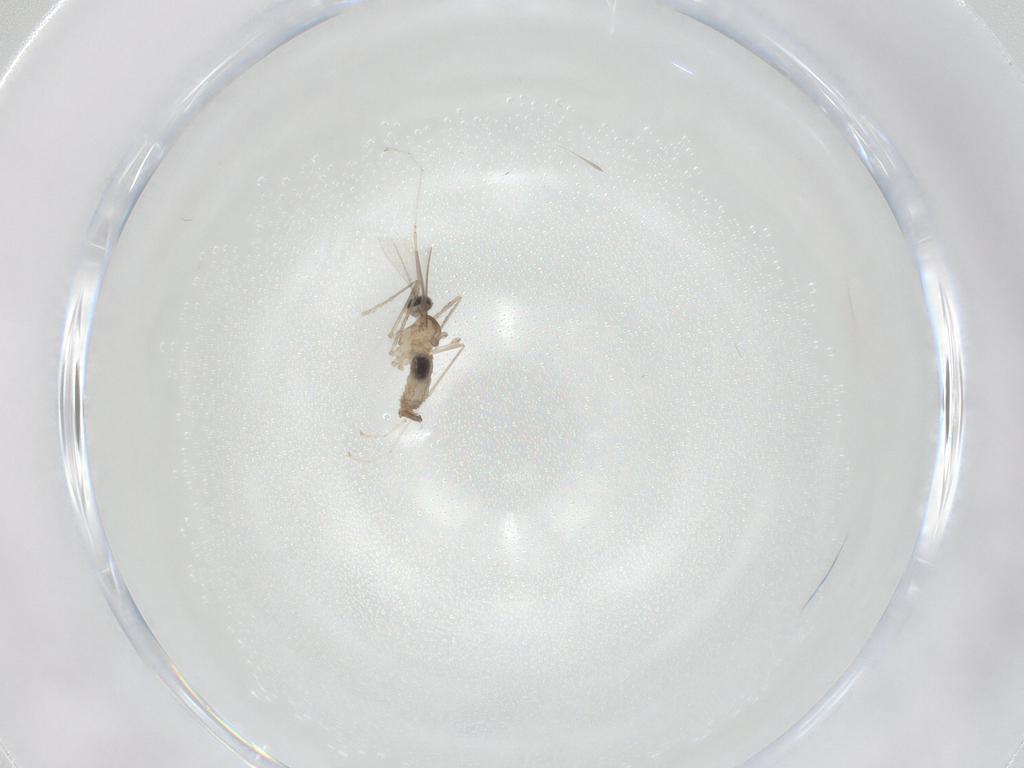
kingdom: Animalia
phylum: Arthropoda
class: Insecta
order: Diptera
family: Cecidomyiidae
